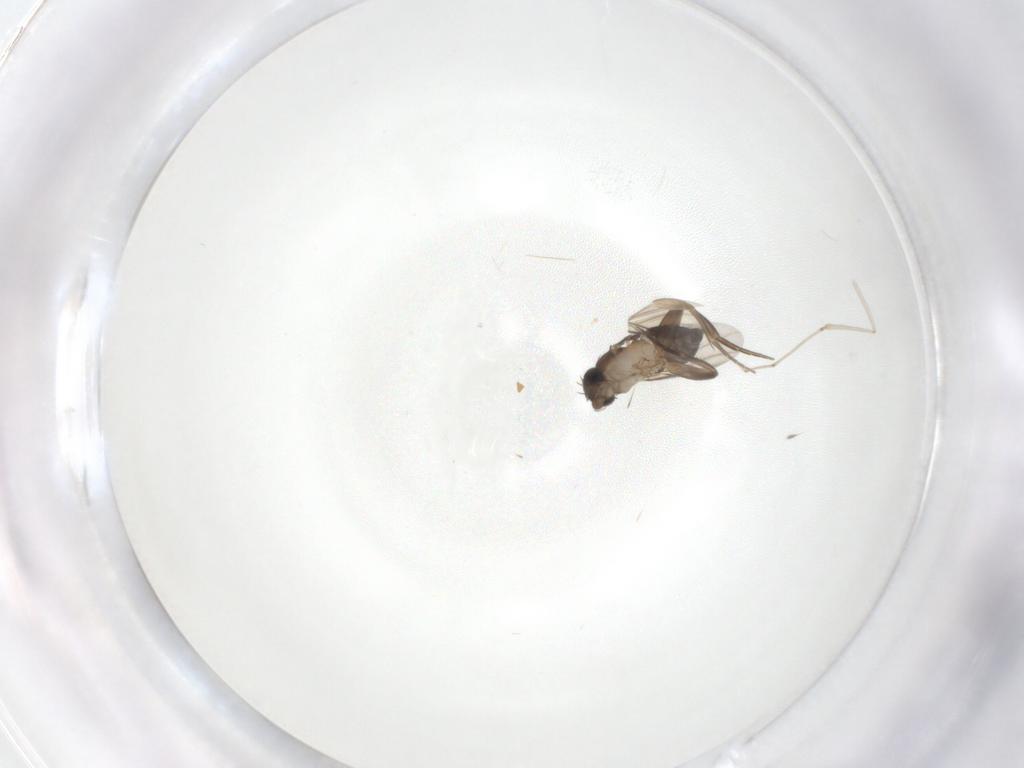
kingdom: Animalia
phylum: Arthropoda
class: Insecta
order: Diptera
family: Phoridae
